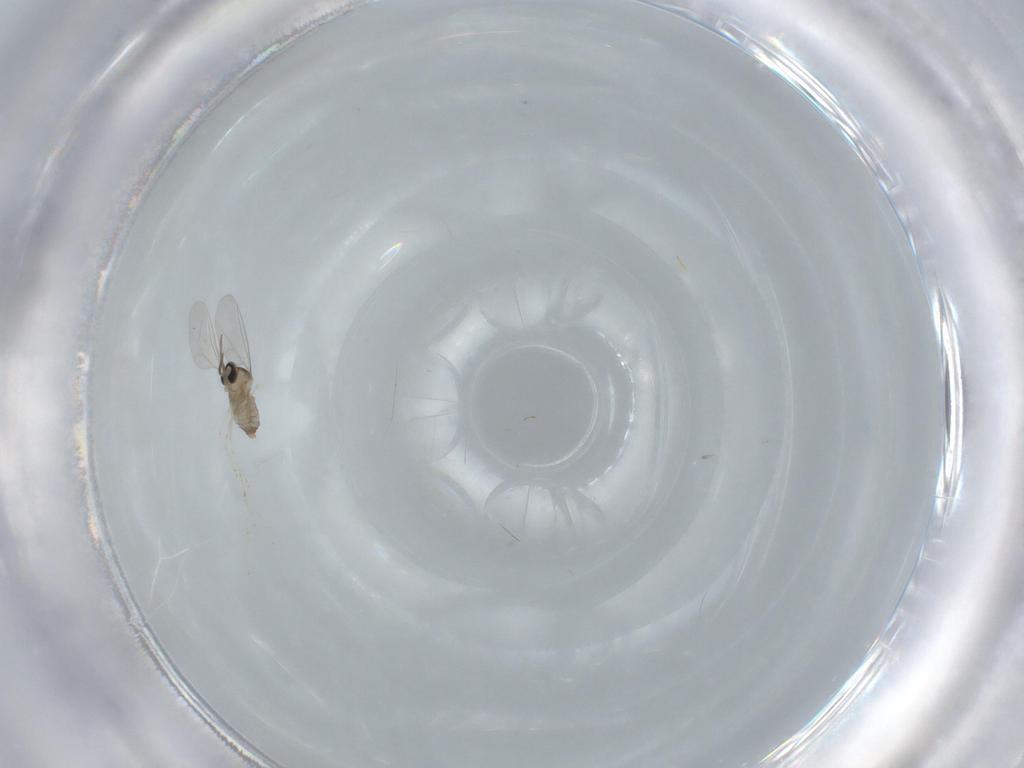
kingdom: Animalia
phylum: Arthropoda
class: Insecta
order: Diptera
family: Cecidomyiidae
